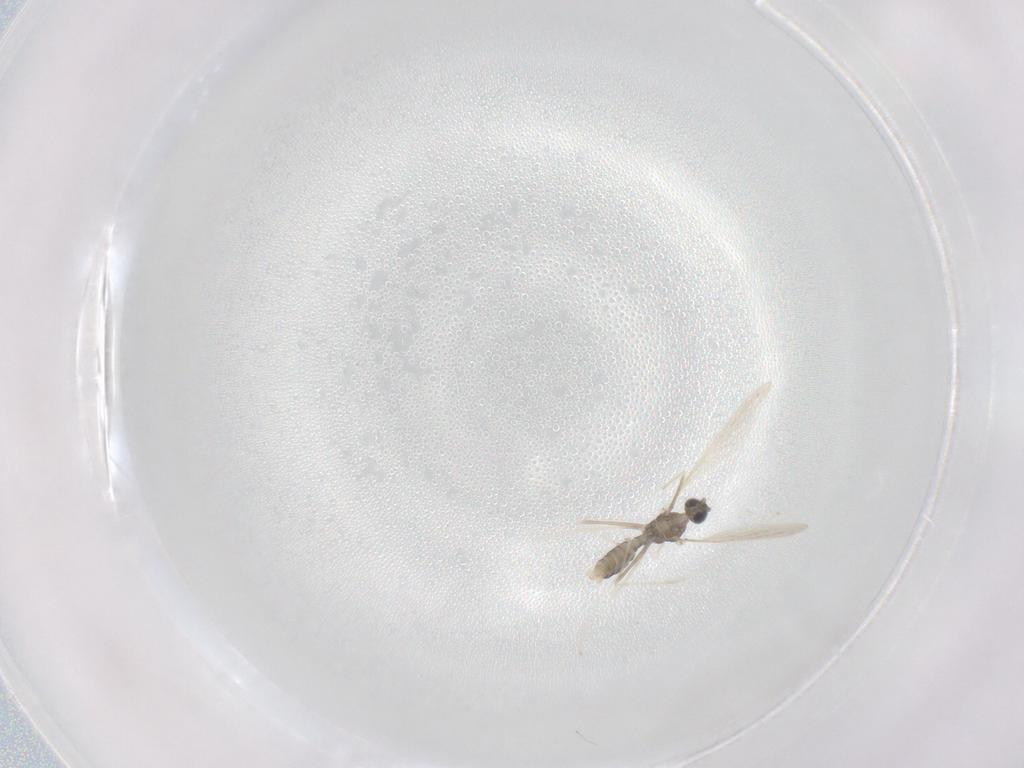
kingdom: Animalia
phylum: Arthropoda
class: Insecta
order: Diptera
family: Cecidomyiidae
